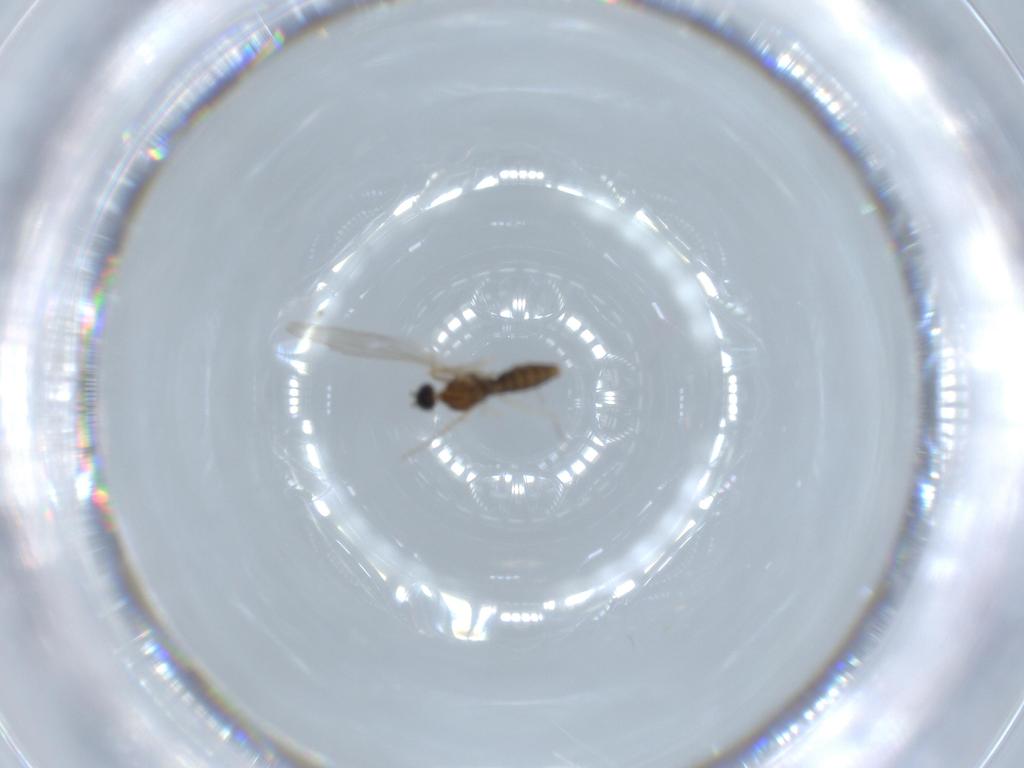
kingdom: Animalia
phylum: Arthropoda
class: Insecta
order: Diptera
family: Cecidomyiidae
